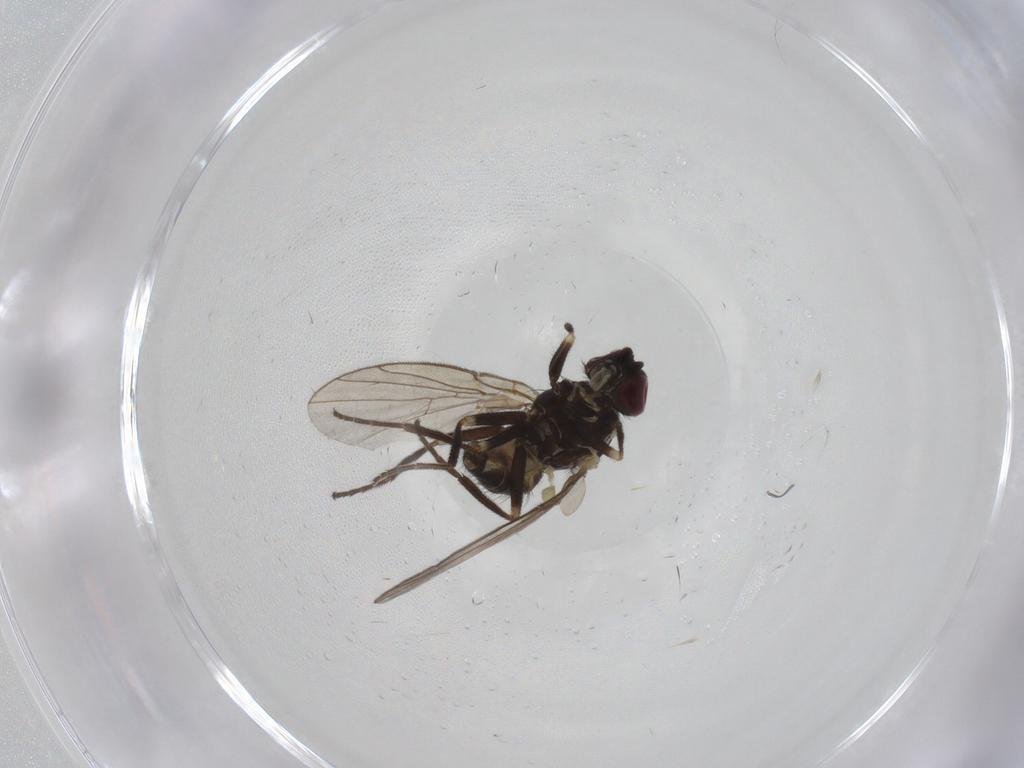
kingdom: Animalia
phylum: Arthropoda
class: Insecta
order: Diptera
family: Agromyzidae
